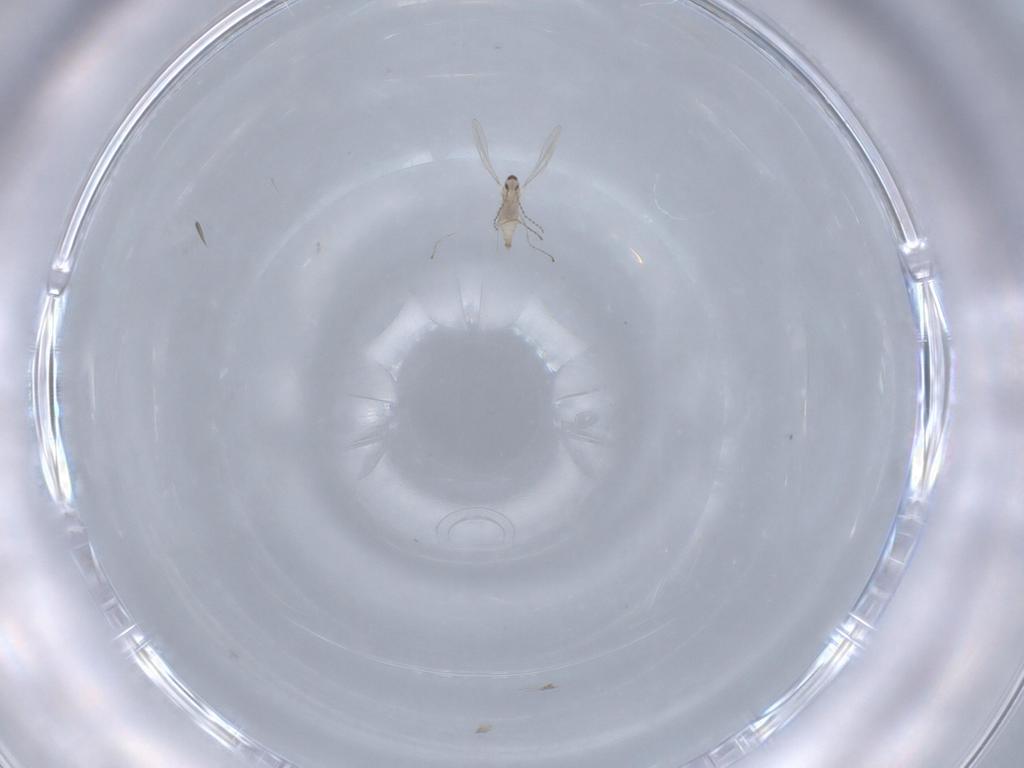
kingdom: Animalia
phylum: Arthropoda
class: Insecta
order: Diptera
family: Cecidomyiidae
